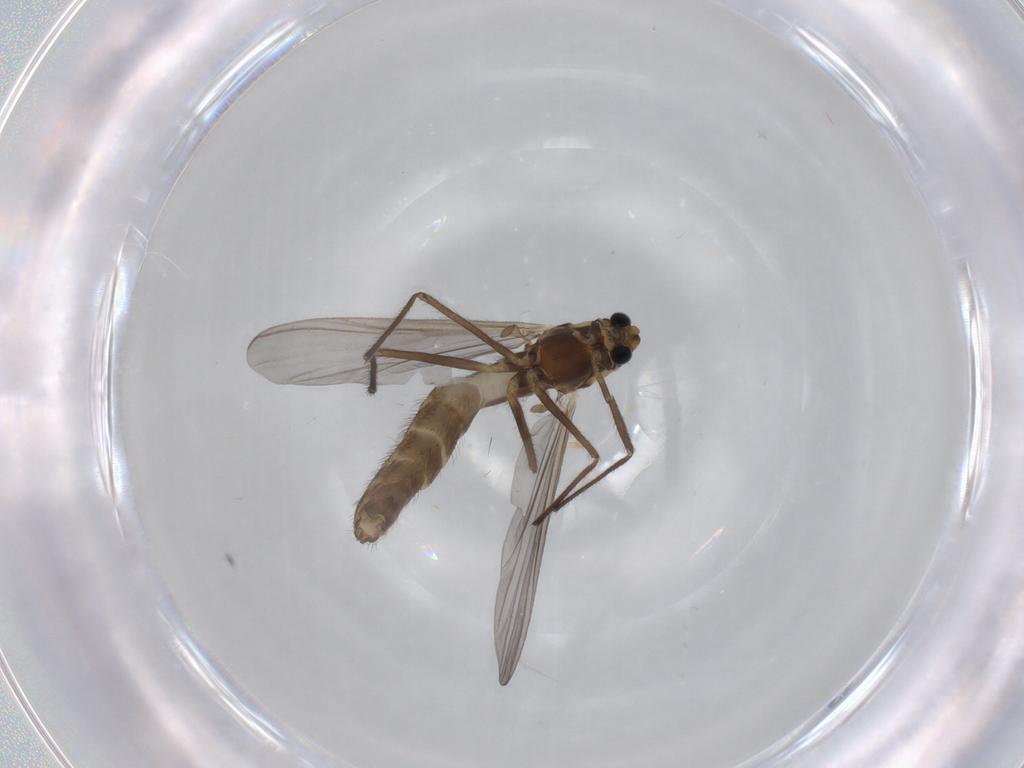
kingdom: Animalia
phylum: Arthropoda
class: Insecta
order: Diptera
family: Chironomidae
